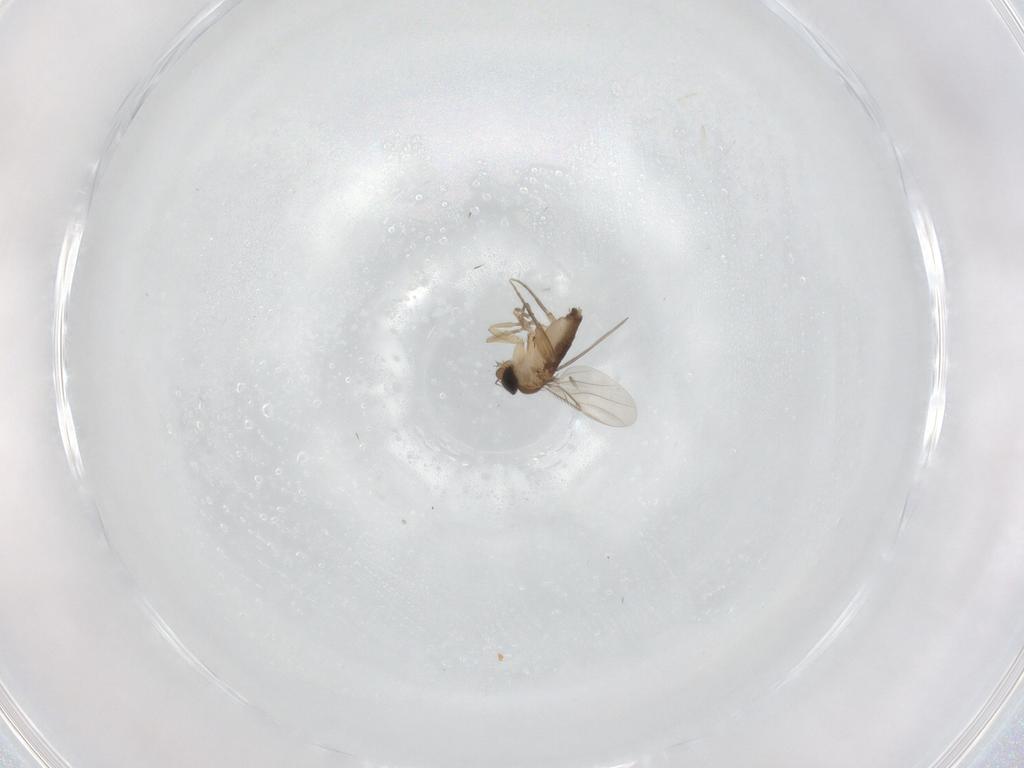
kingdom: Animalia
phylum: Arthropoda
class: Insecta
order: Diptera
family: Phoridae
